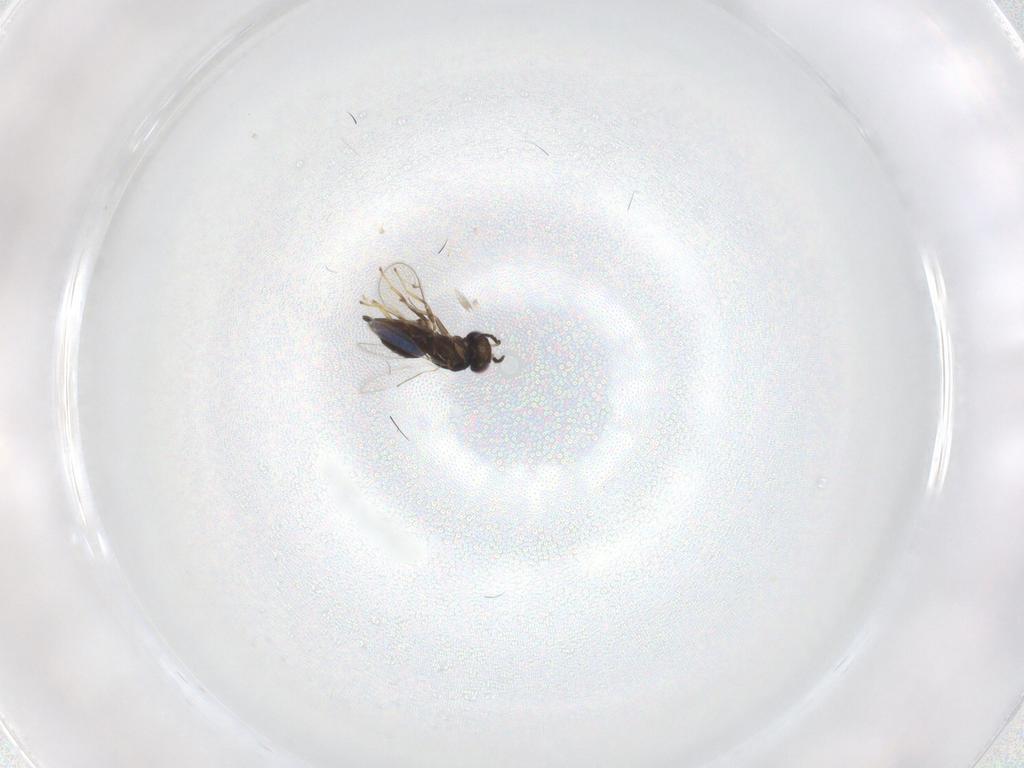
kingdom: Animalia
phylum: Arthropoda
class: Insecta
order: Hymenoptera
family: Eulophidae
